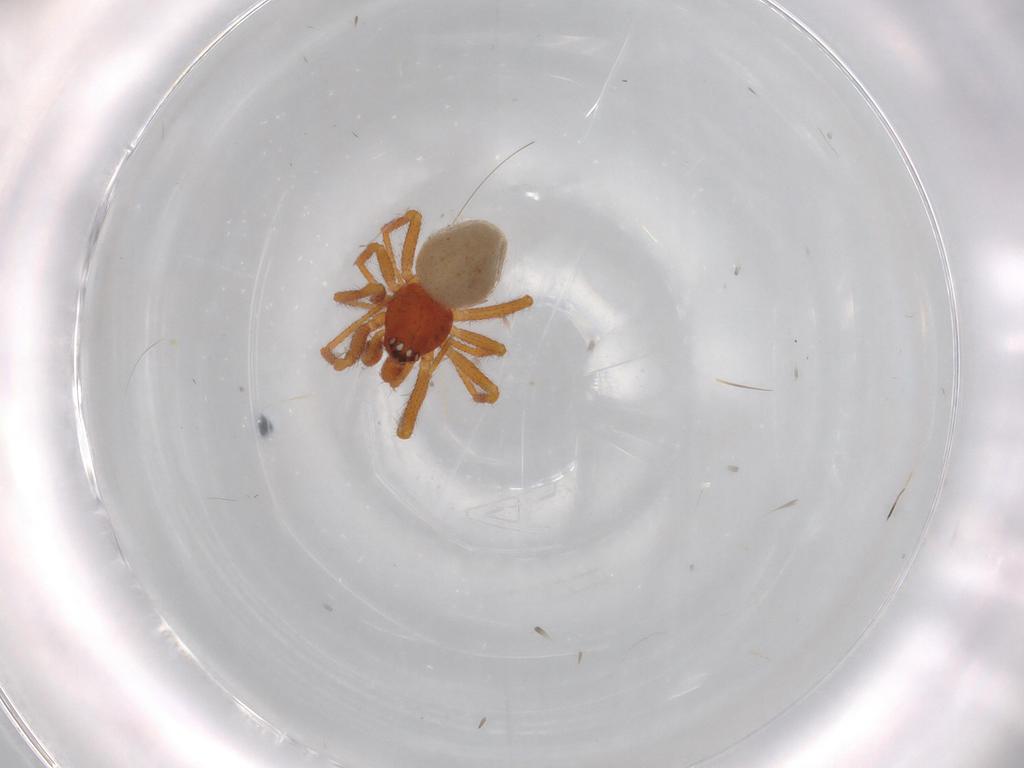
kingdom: Animalia
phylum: Arthropoda
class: Arachnida
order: Araneae
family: Theridiidae
